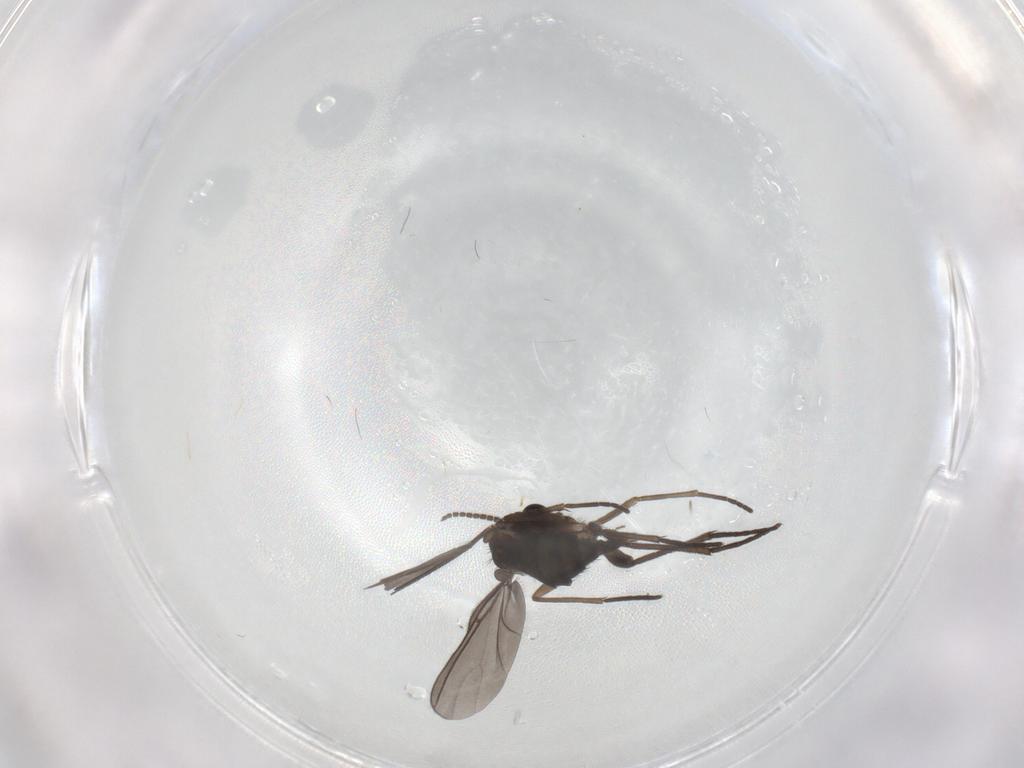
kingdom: Animalia
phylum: Arthropoda
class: Insecta
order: Diptera
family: Sciaridae
